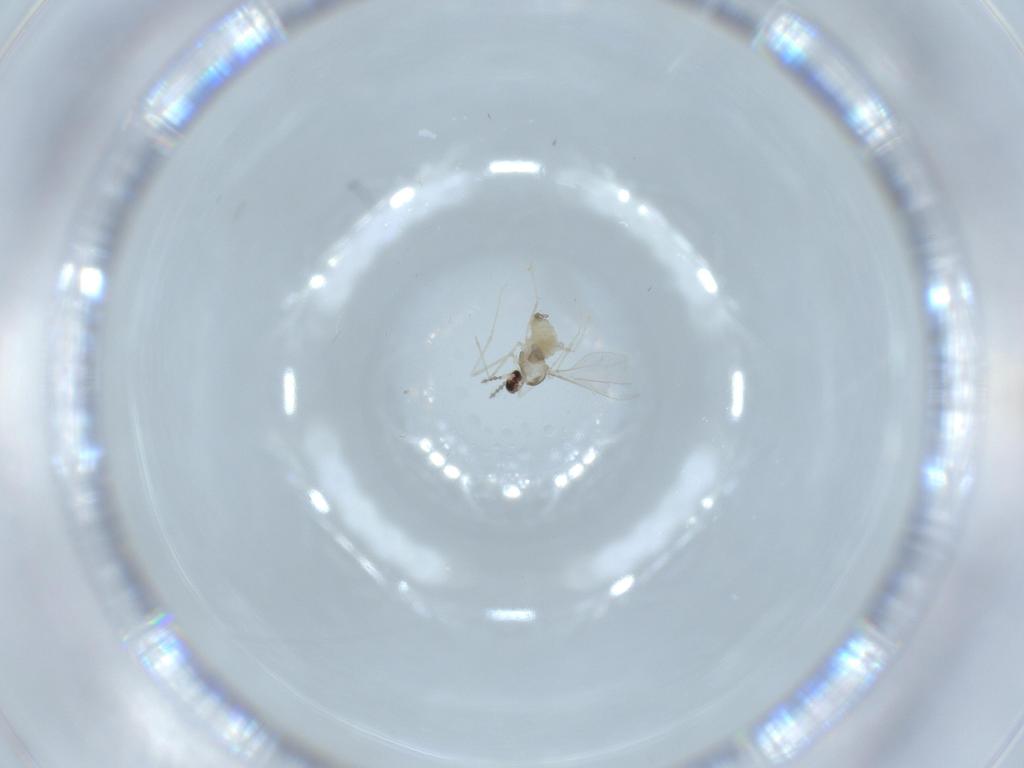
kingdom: Animalia
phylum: Arthropoda
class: Insecta
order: Diptera
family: Cecidomyiidae
